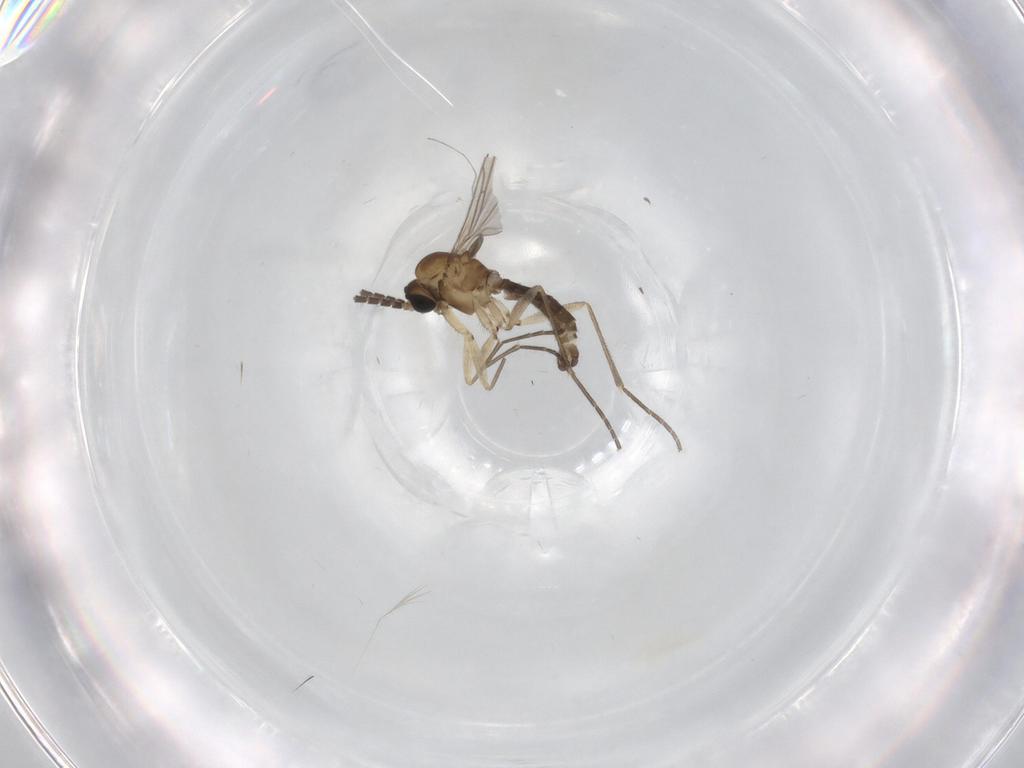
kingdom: Animalia
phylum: Arthropoda
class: Insecta
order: Diptera
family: Sciaridae
